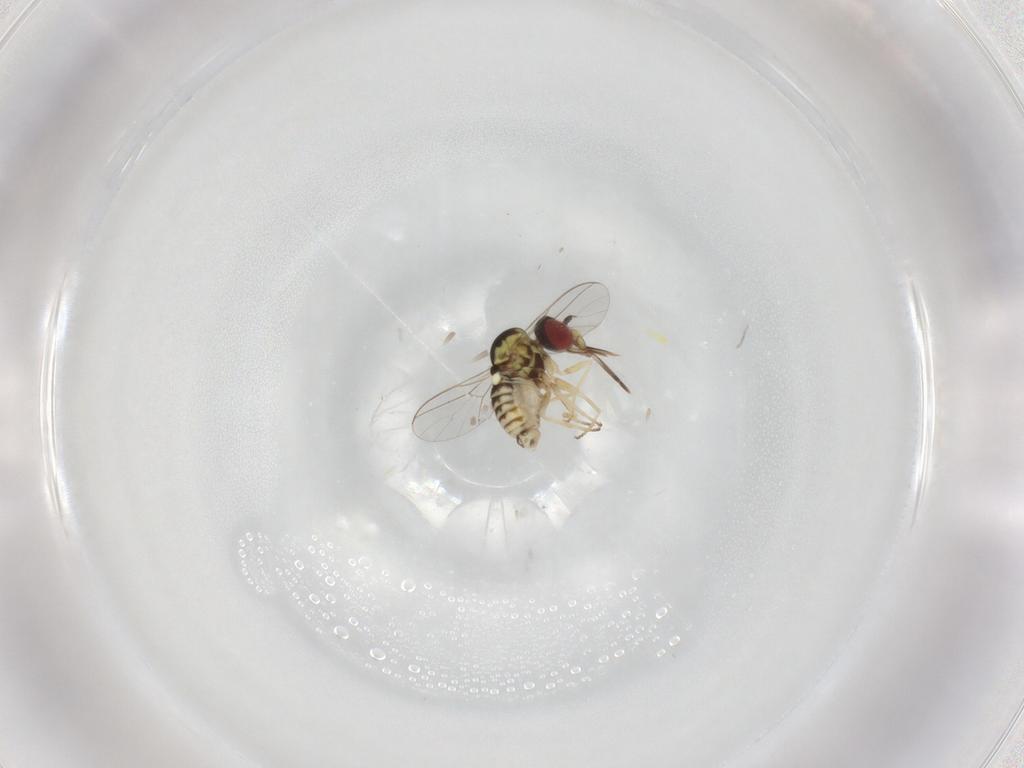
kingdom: Animalia
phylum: Arthropoda
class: Insecta
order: Diptera
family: Scatopsidae
